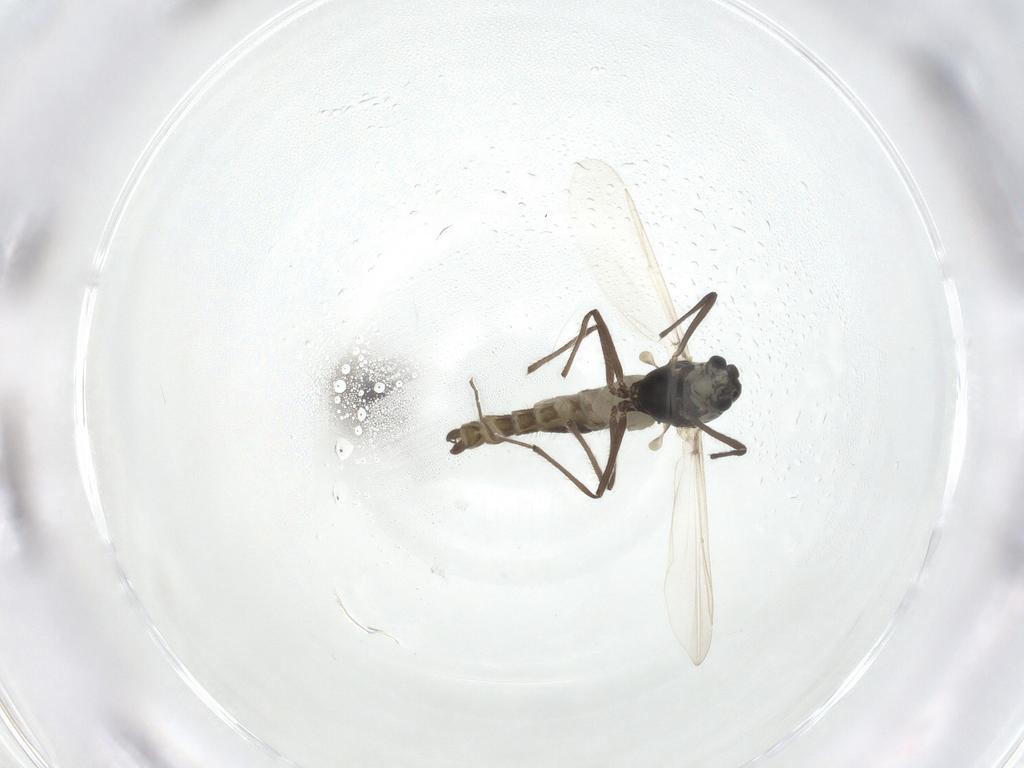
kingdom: Animalia
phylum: Arthropoda
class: Insecta
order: Diptera
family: Chironomidae
